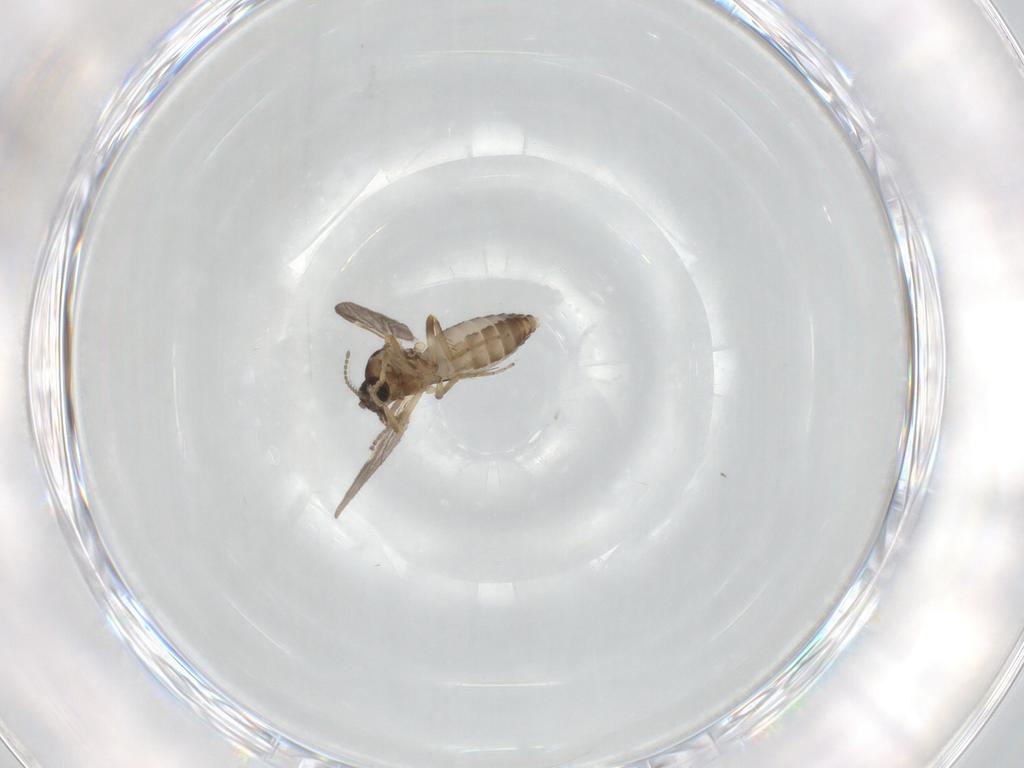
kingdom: Animalia
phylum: Arthropoda
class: Insecta
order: Diptera
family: Ceratopogonidae
